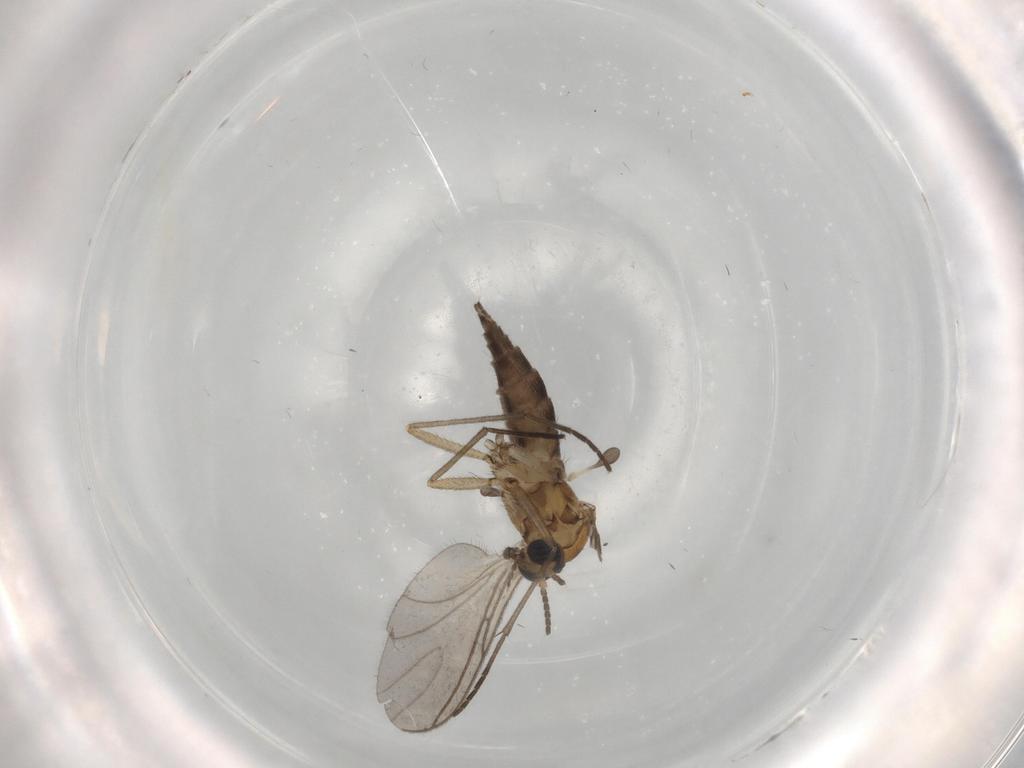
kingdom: Animalia
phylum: Arthropoda
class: Insecta
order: Diptera
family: Sciaridae
